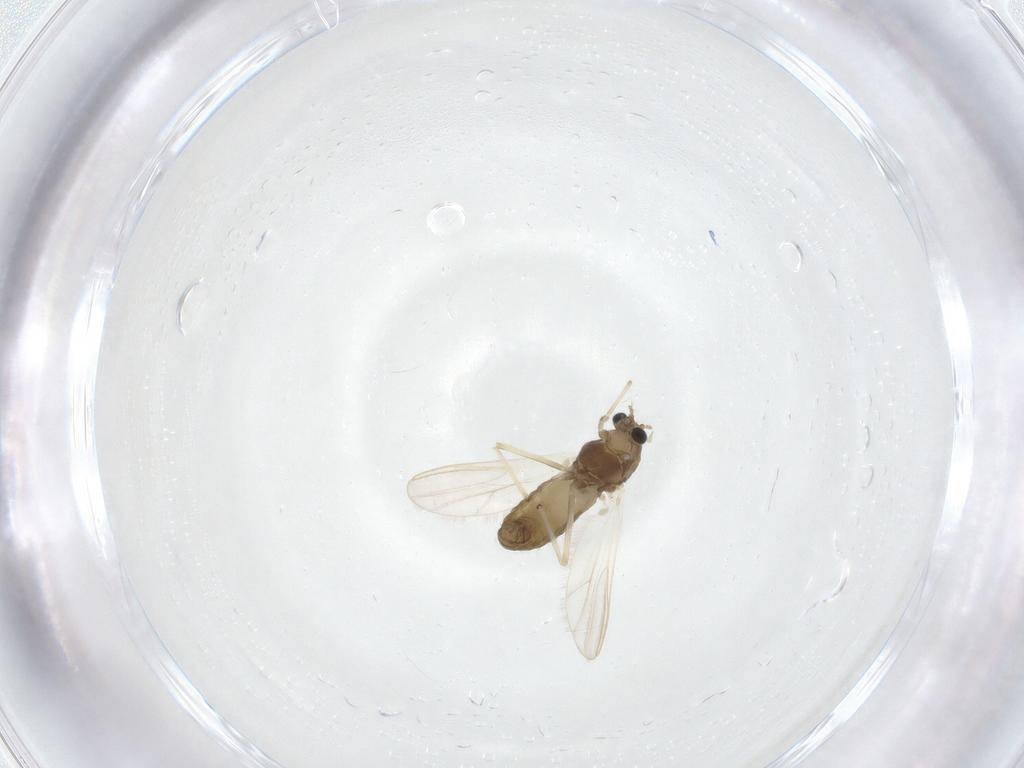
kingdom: Animalia
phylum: Arthropoda
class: Insecta
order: Diptera
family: Chironomidae
